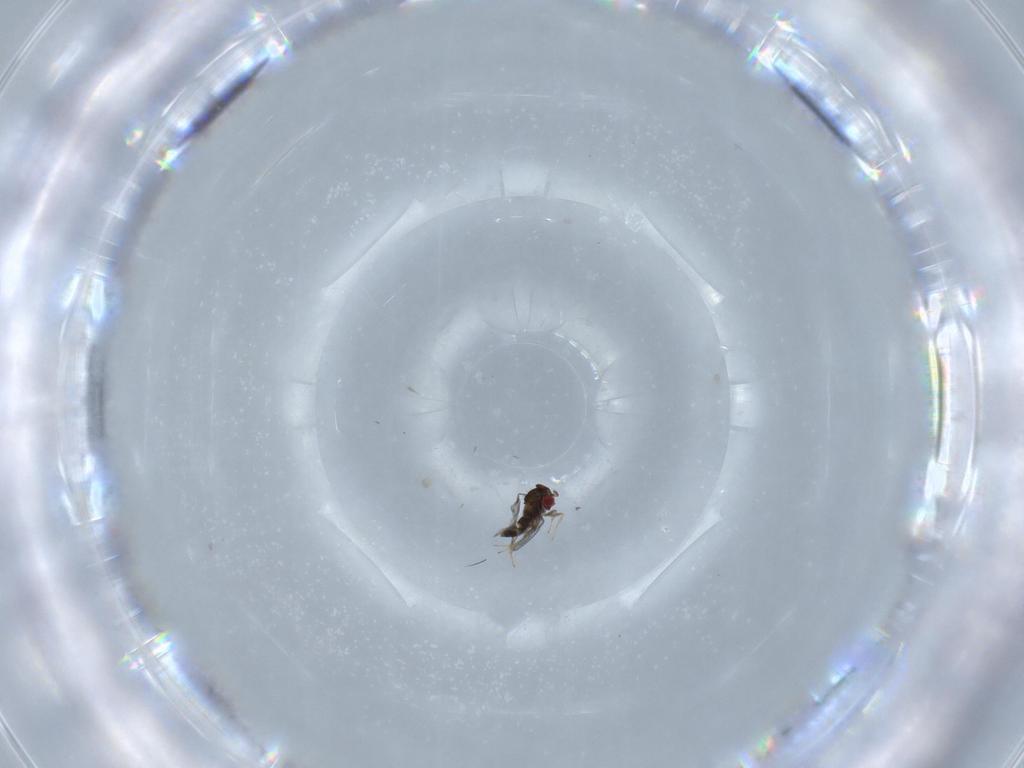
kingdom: Animalia
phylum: Arthropoda
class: Insecta
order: Hymenoptera
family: Trichogrammatidae
